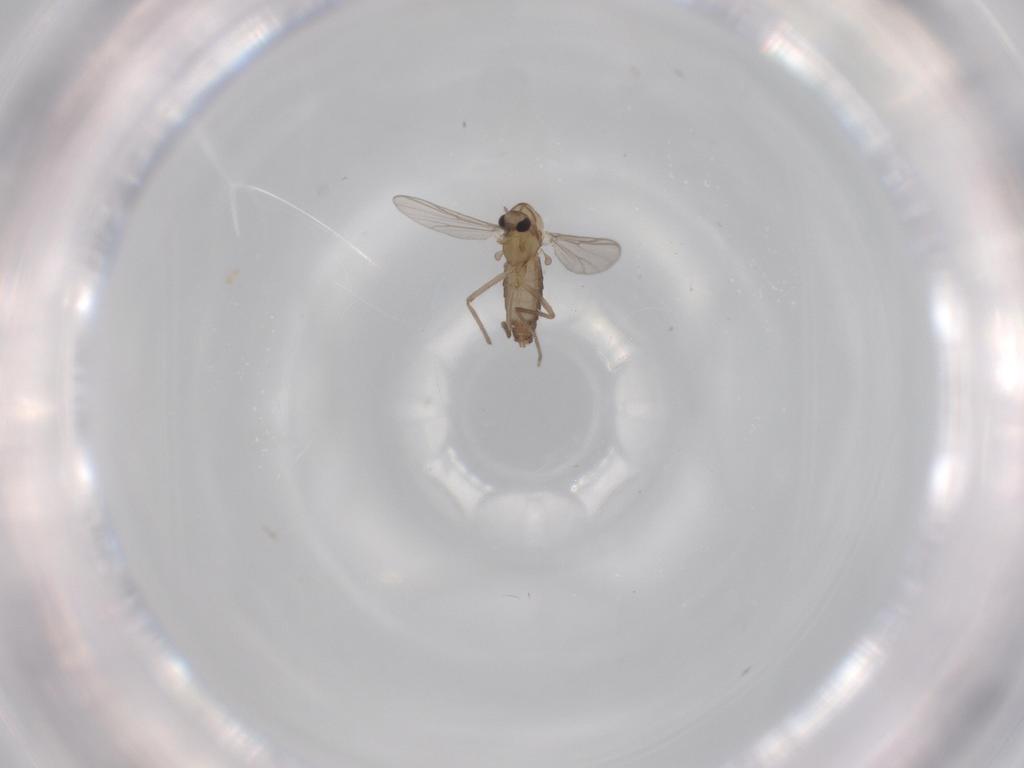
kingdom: Animalia
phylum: Arthropoda
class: Insecta
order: Diptera
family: Chironomidae
